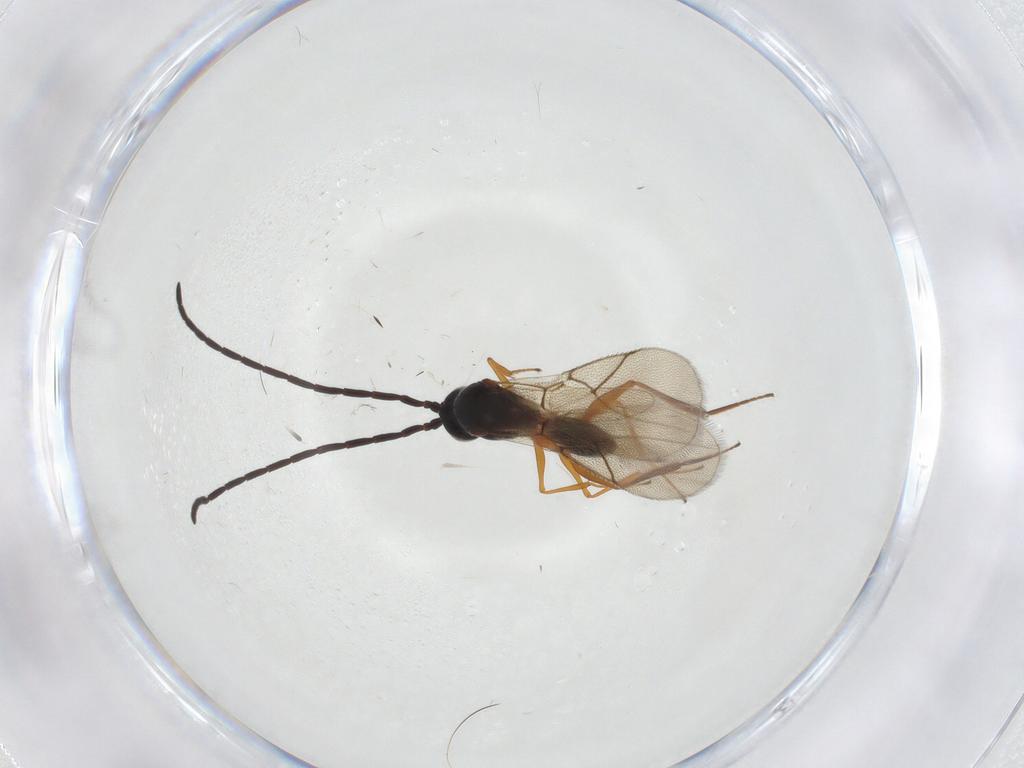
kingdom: Animalia
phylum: Arthropoda
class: Insecta
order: Hymenoptera
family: Figitidae
